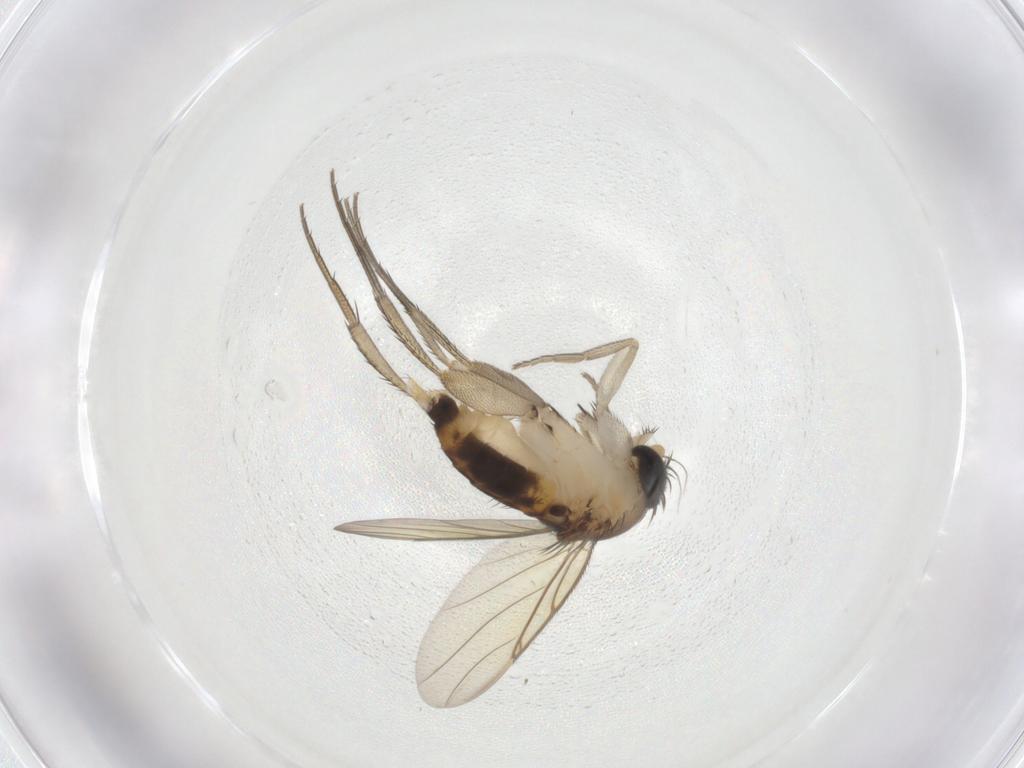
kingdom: Animalia
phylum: Arthropoda
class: Insecta
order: Diptera
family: Phoridae
